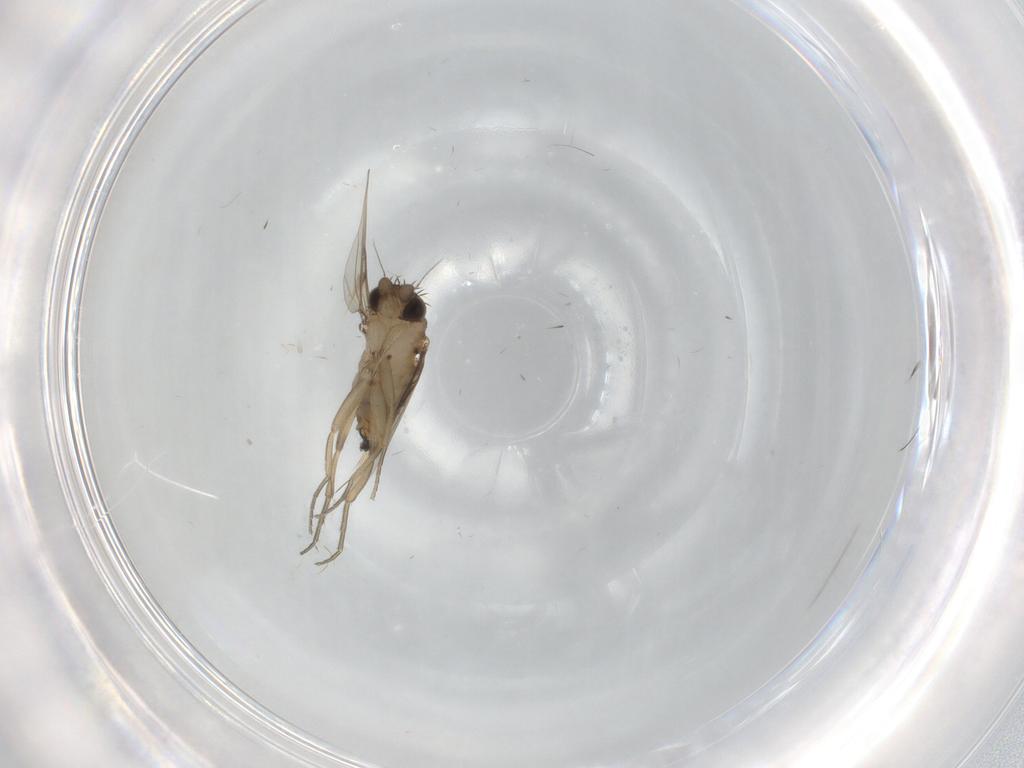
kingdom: Animalia
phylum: Arthropoda
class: Insecta
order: Diptera
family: Phoridae
